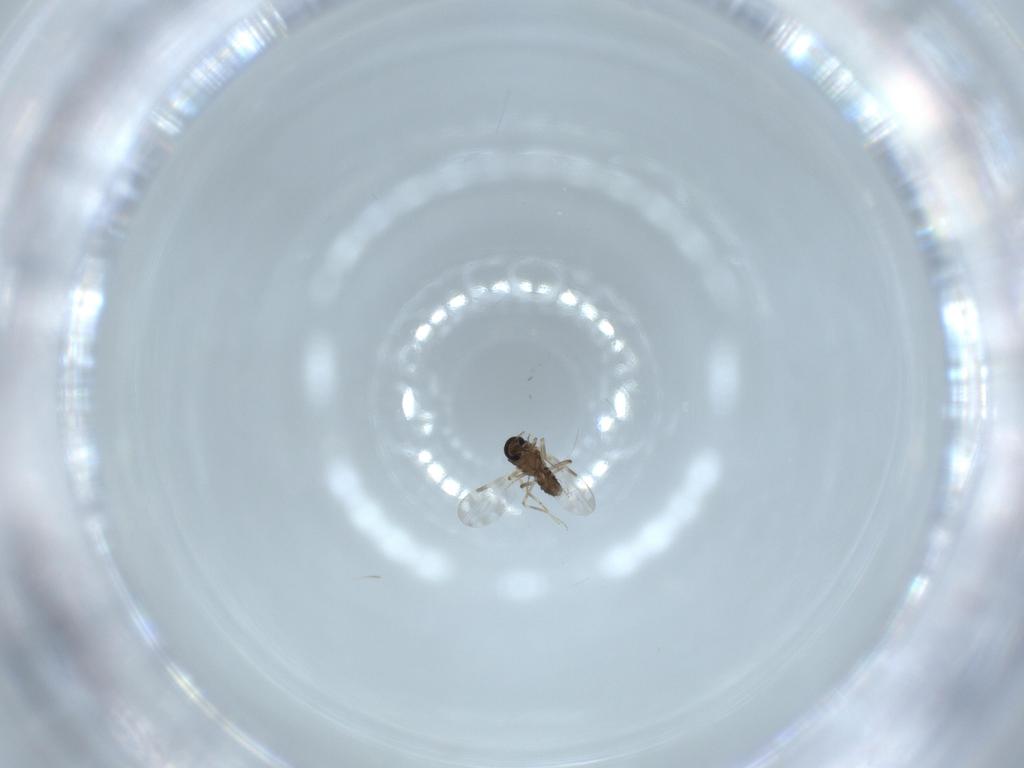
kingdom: Animalia
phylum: Arthropoda
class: Insecta
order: Diptera
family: Ceratopogonidae
